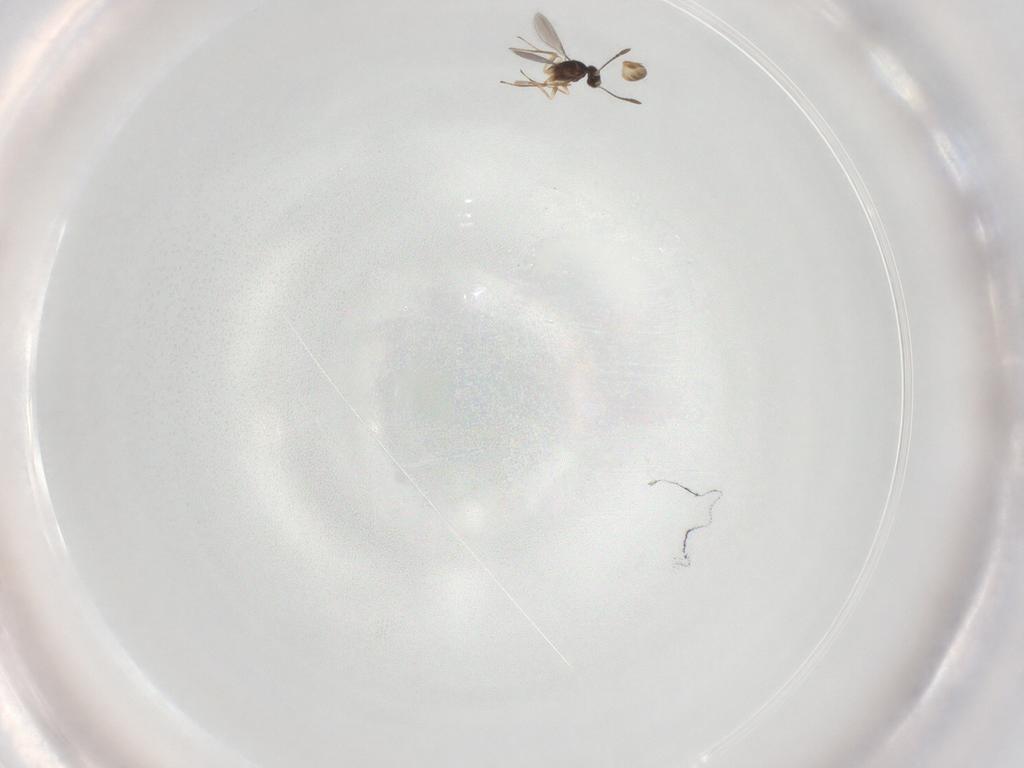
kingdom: Animalia
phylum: Arthropoda
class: Insecta
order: Hymenoptera
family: Mymaridae
